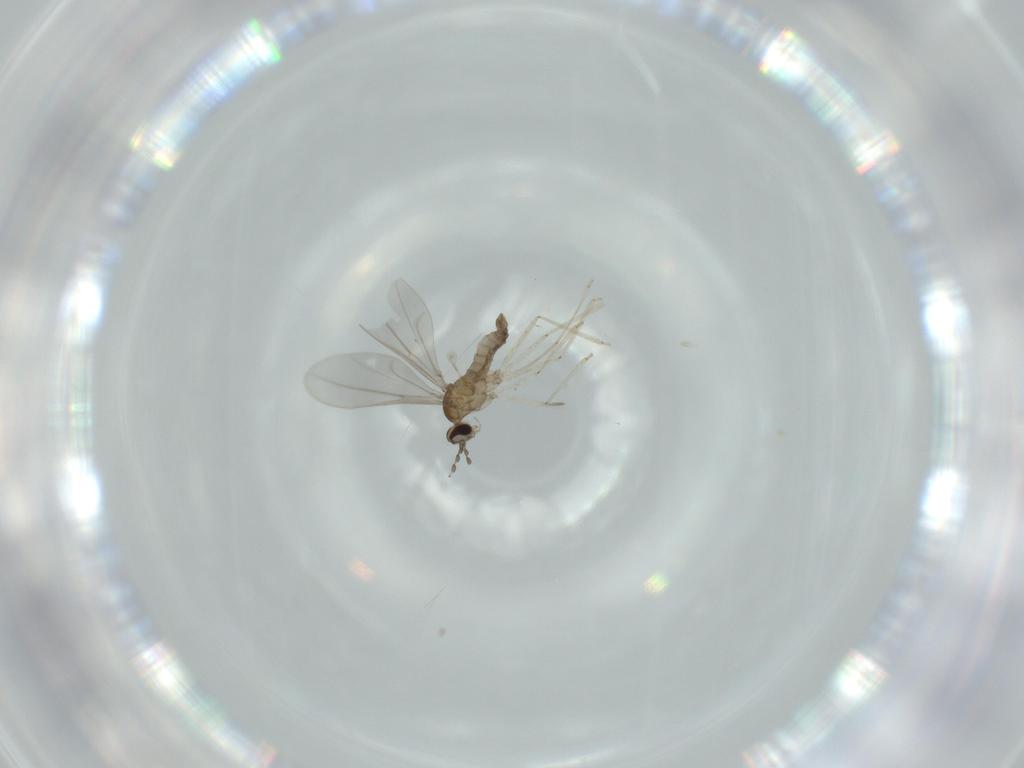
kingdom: Animalia
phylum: Arthropoda
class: Insecta
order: Diptera
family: Cecidomyiidae
